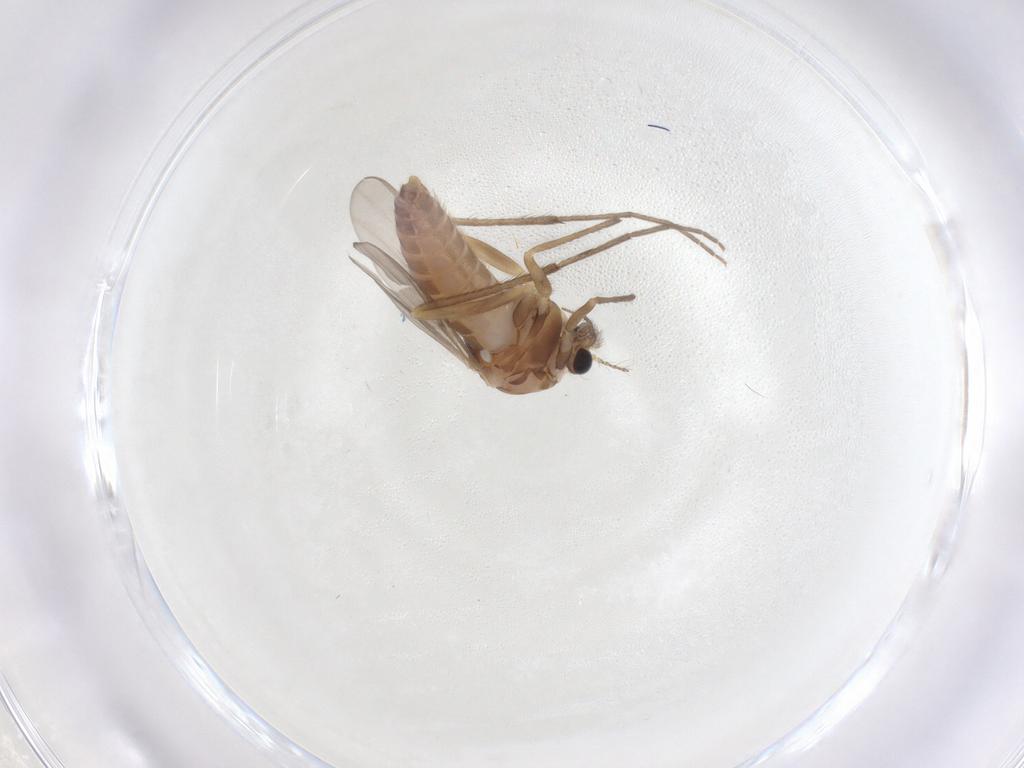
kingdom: Animalia
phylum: Arthropoda
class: Insecta
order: Diptera
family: Chironomidae
